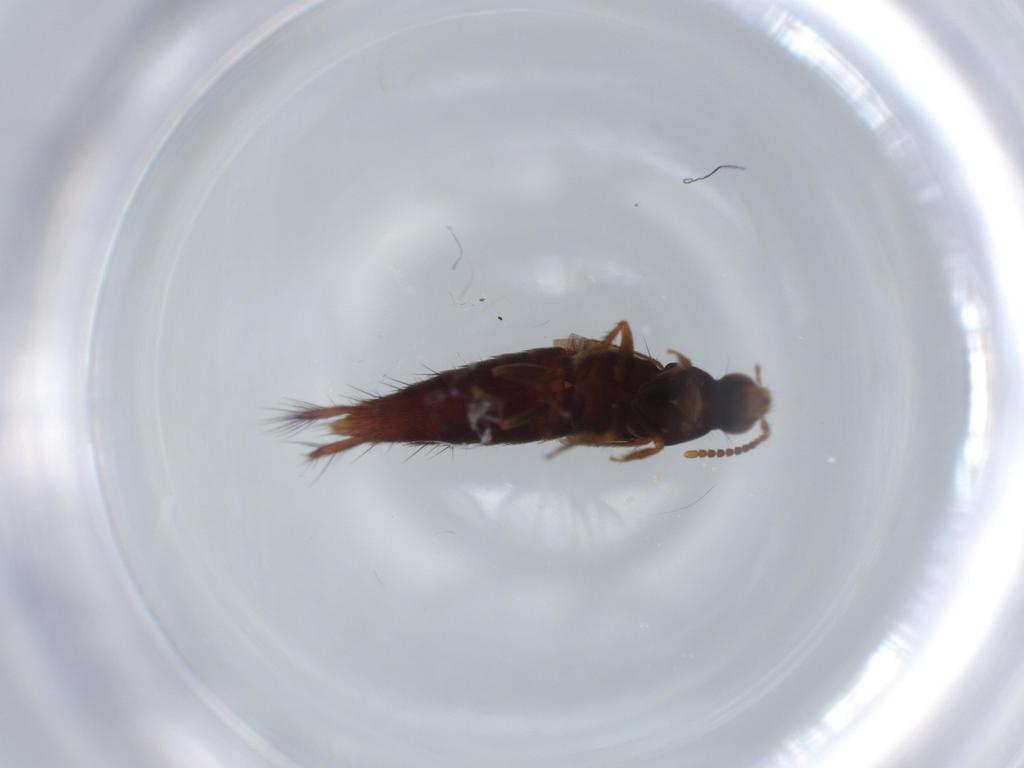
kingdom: Animalia
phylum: Arthropoda
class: Insecta
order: Coleoptera
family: Staphylinidae
